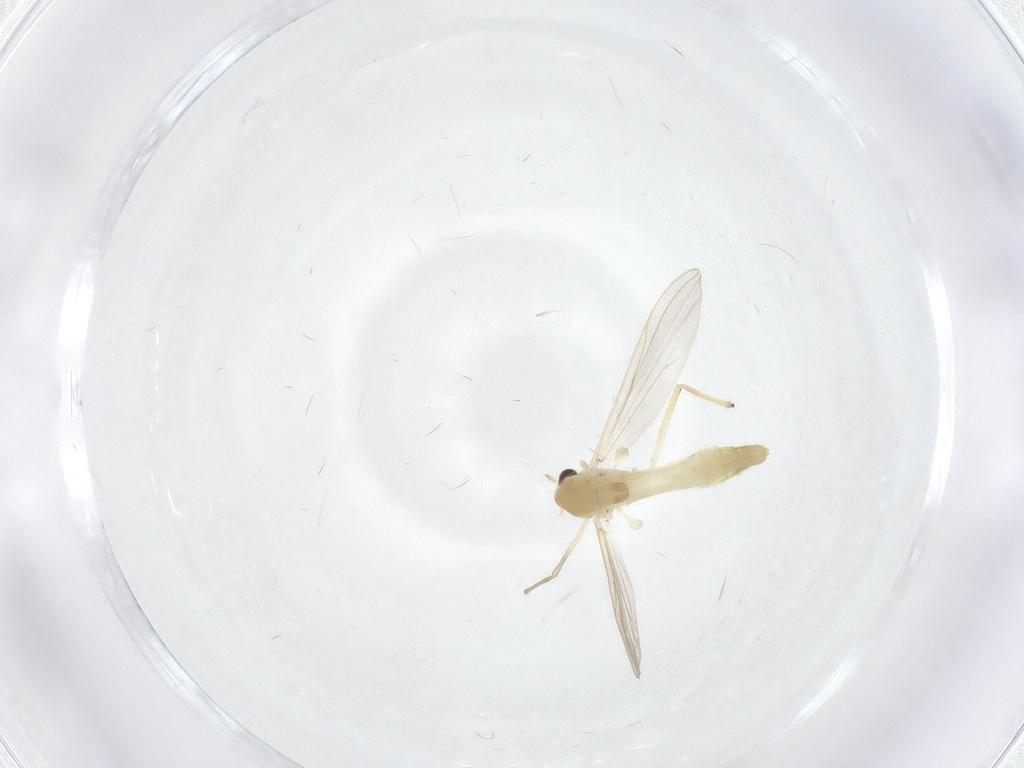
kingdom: Animalia
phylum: Arthropoda
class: Insecta
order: Diptera
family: Chironomidae
